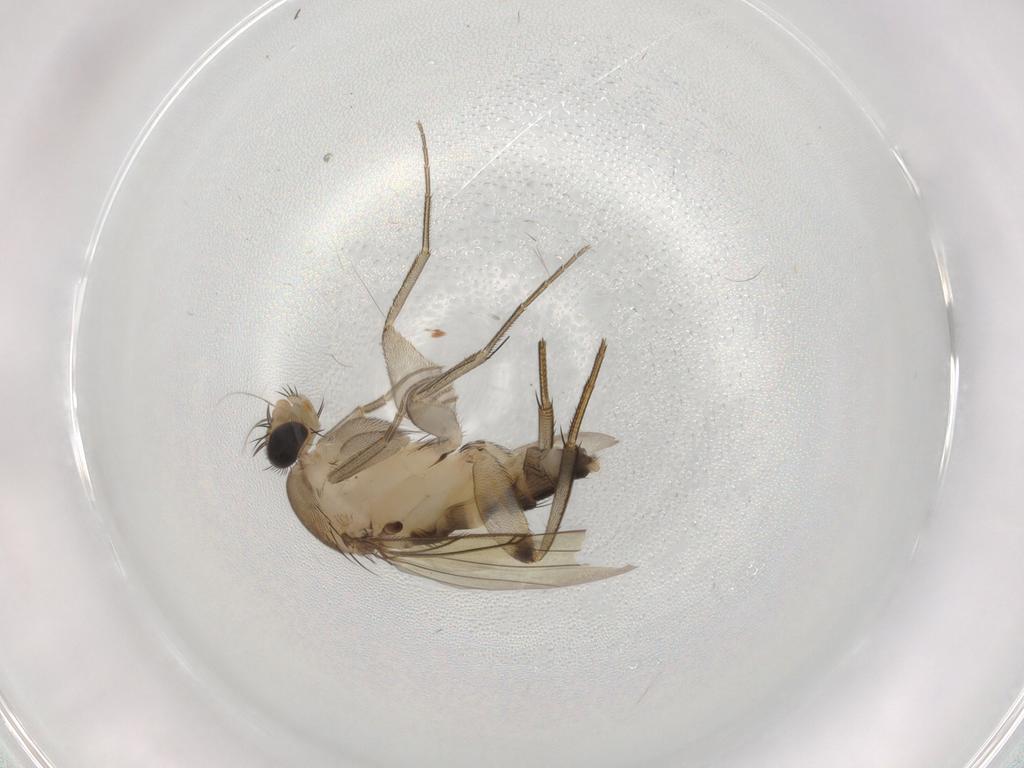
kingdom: Animalia
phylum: Arthropoda
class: Insecta
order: Diptera
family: Phoridae
